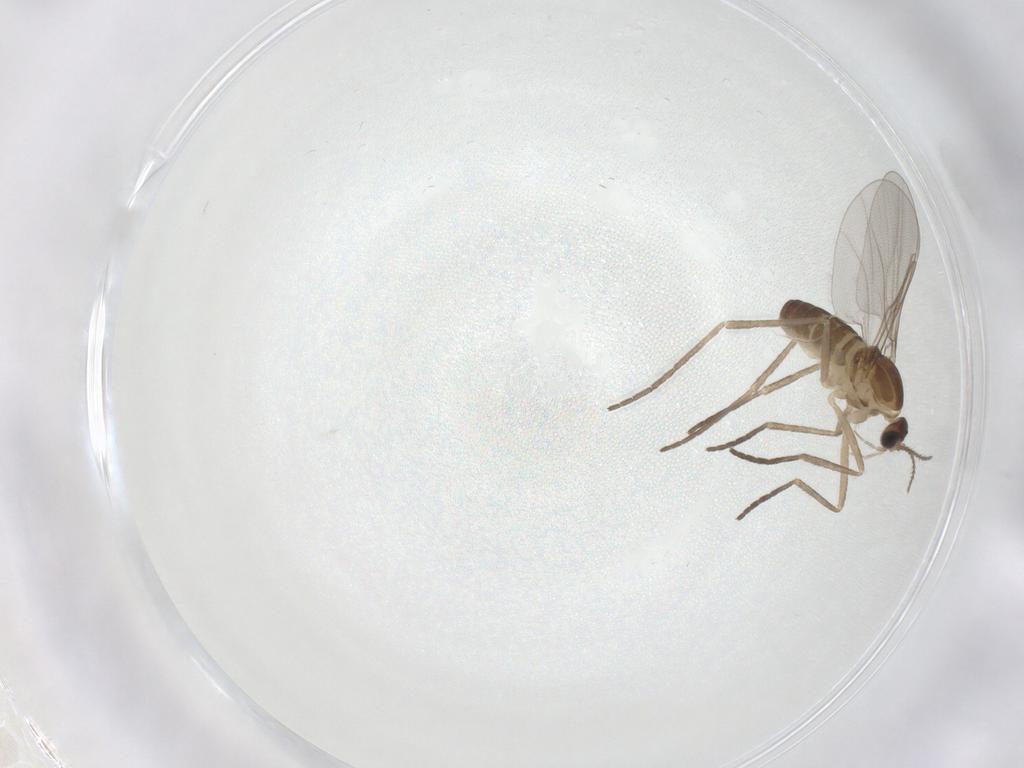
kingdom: Animalia
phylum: Arthropoda
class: Insecta
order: Diptera
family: Cecidomyiidae
